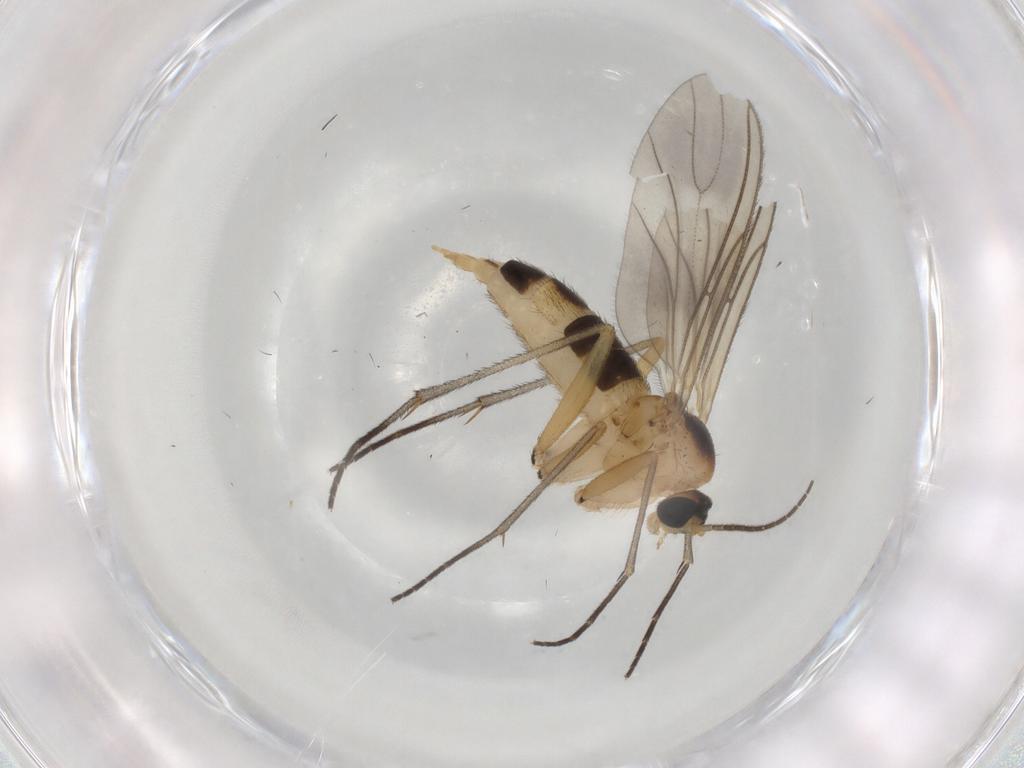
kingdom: Animalia
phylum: Arthropoda
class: Insecta
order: Diptera
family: Sciaridae
